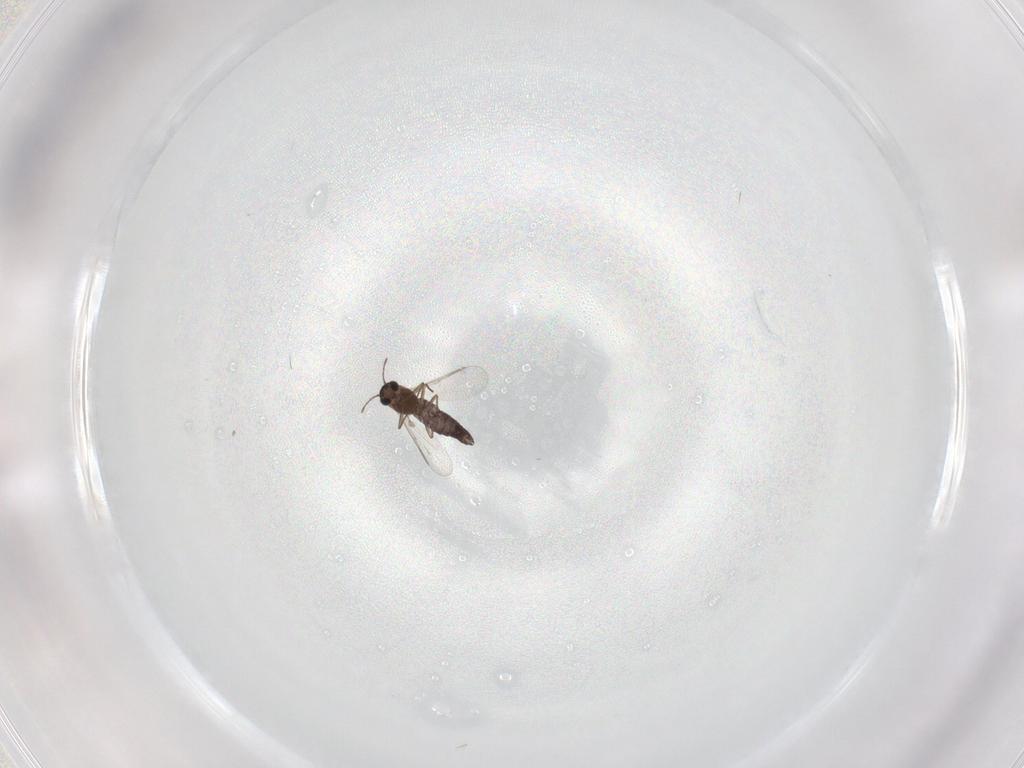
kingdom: Animalia
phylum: Arthropoda
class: Insecta
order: Diptera
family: Chironomidae
